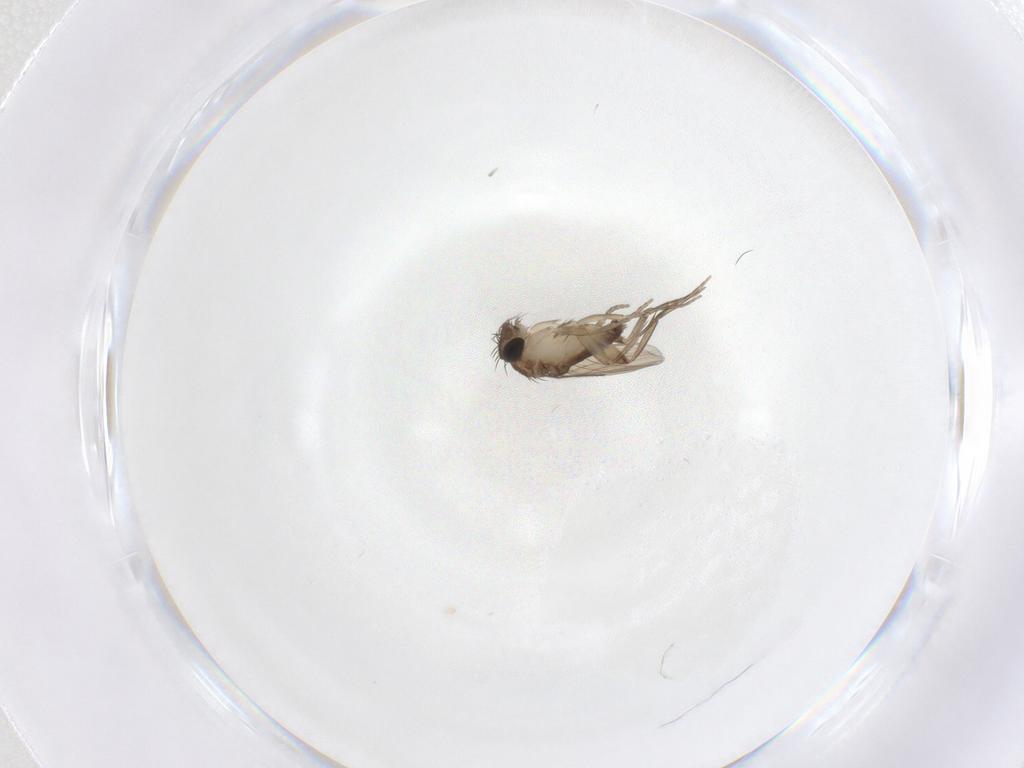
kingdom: Animalia
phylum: Arthropoda
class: Insecta
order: Diptera
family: Phoridae
